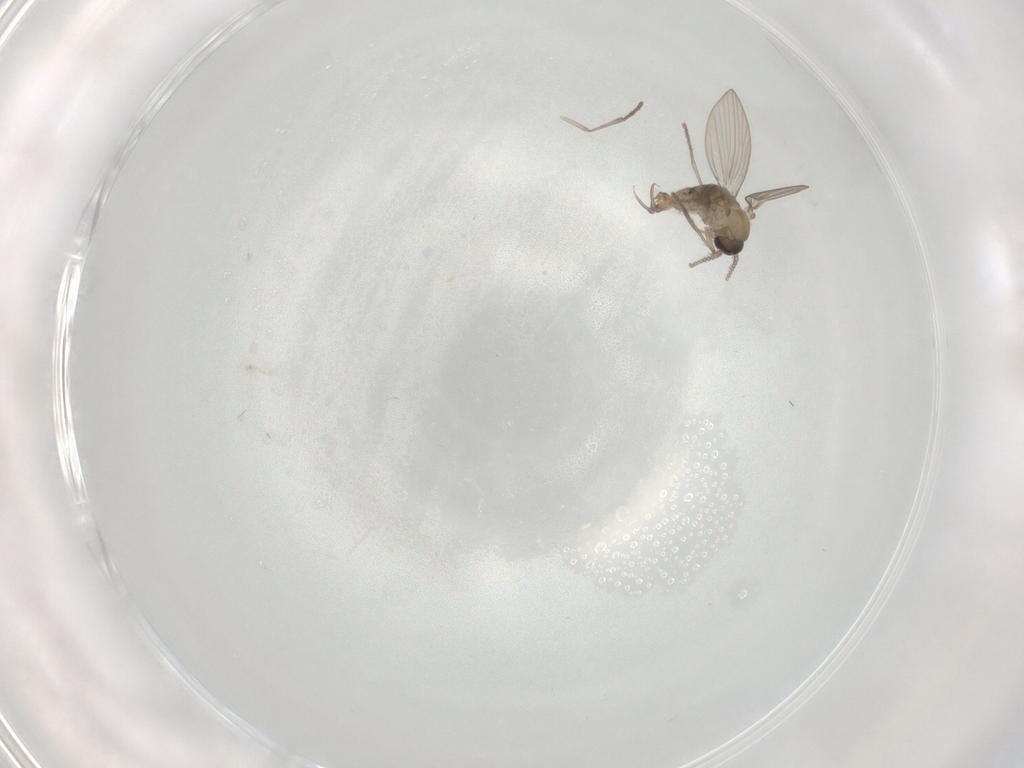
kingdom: Animalia
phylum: Arthropoda
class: Insecta
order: Diptera
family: Psychodidae
